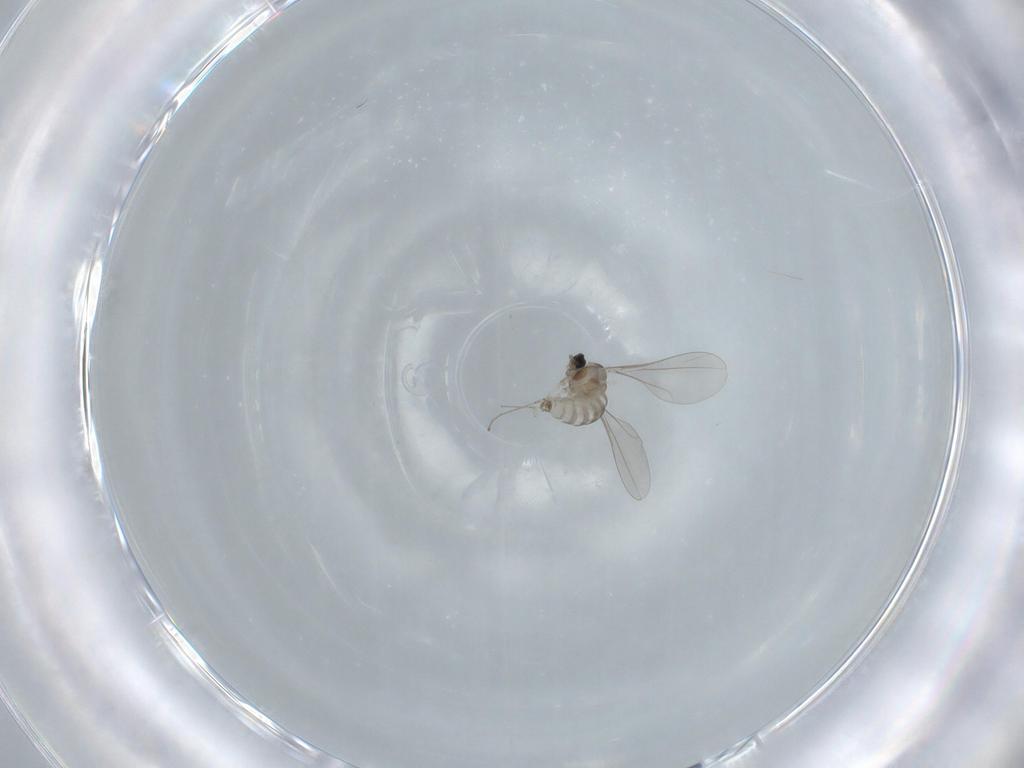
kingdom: Animalia
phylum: Arthropoda
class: Insecta
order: Diptera
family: Cecidomyiidae
